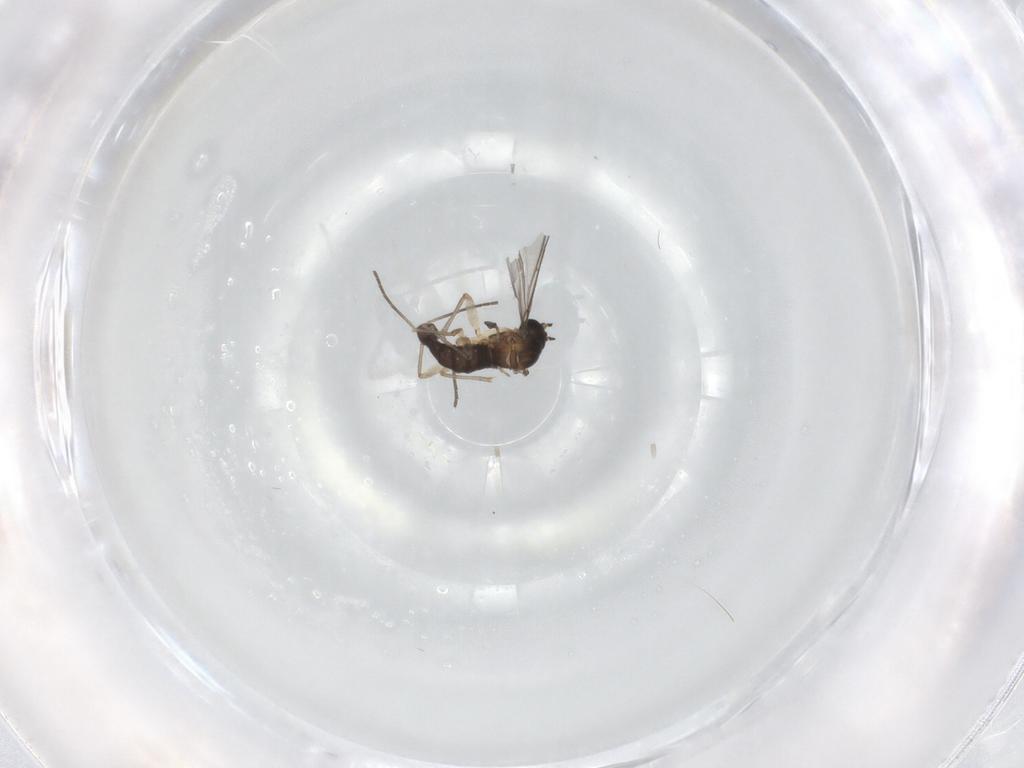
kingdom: Animalia
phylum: Arthropoda
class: Insecta
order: Diptera
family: Sciaridae
